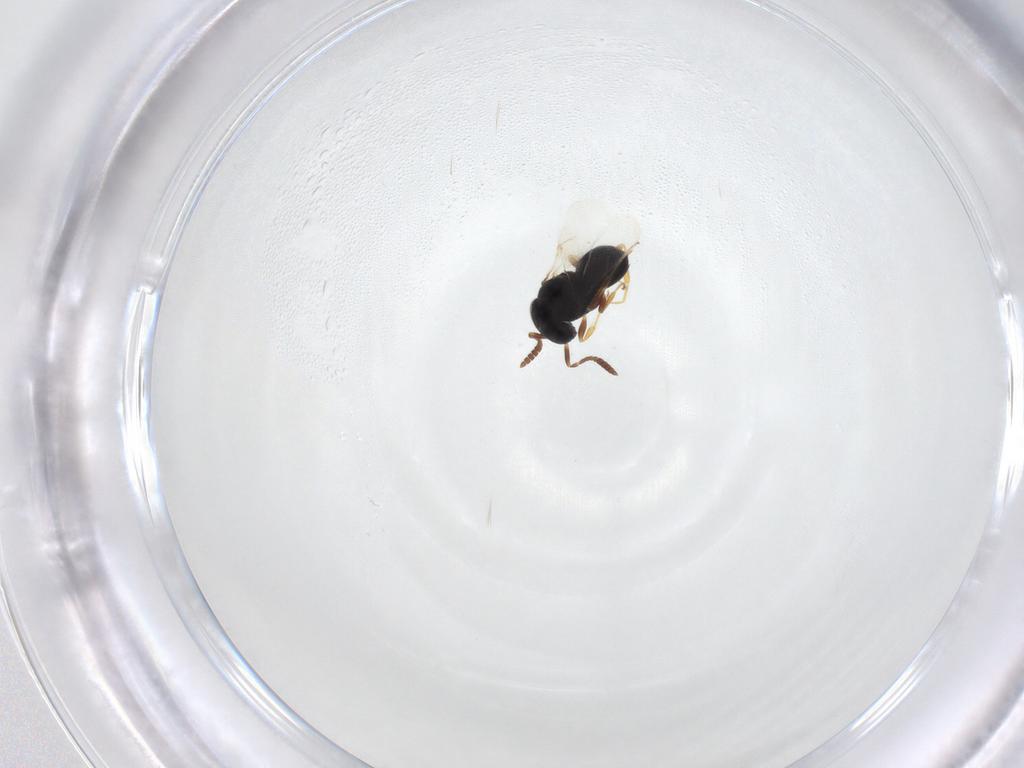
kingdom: Animalia
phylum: Arthropoda
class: Insecta
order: Hymenoptera
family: Scelionidae
